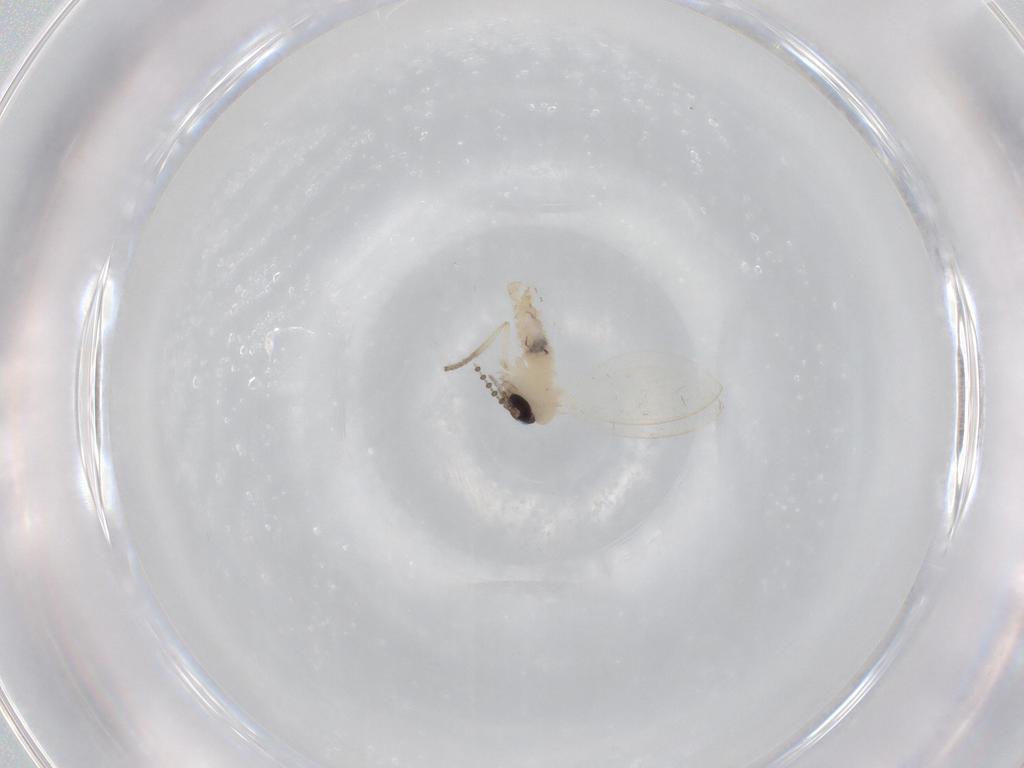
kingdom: Animalia
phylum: Arthropoda
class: Insecta
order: Diptera
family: Psychodidae
